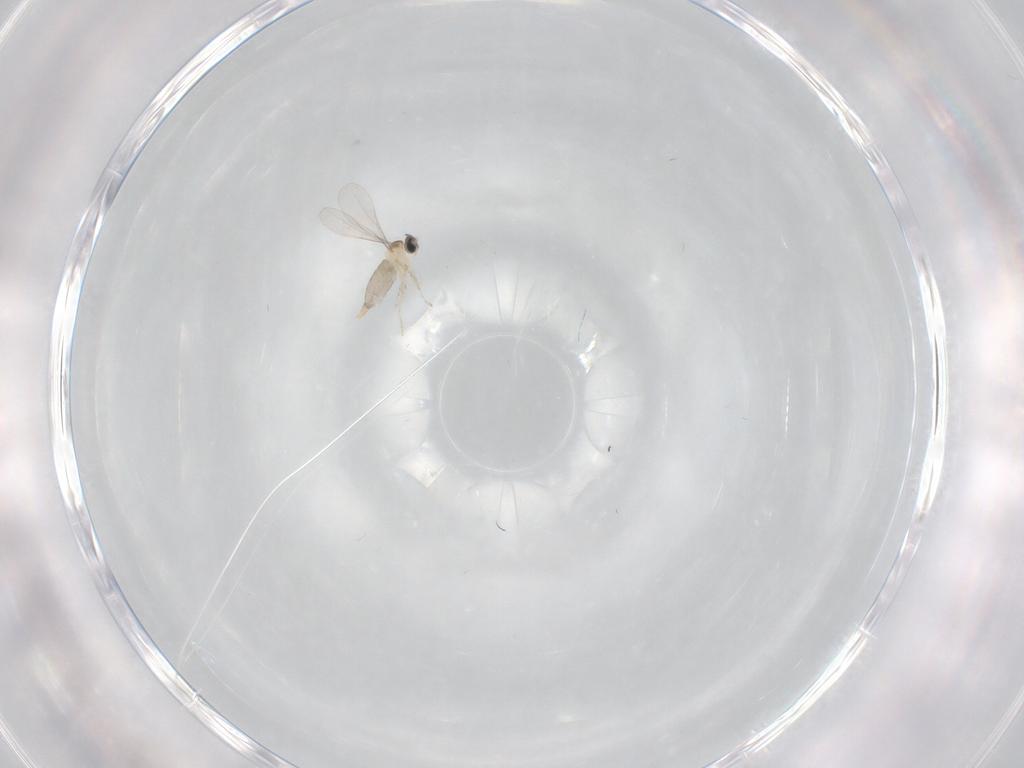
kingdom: Animalia
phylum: Arthropoda
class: Insecta
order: Diptera
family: Cecidomyiidae
